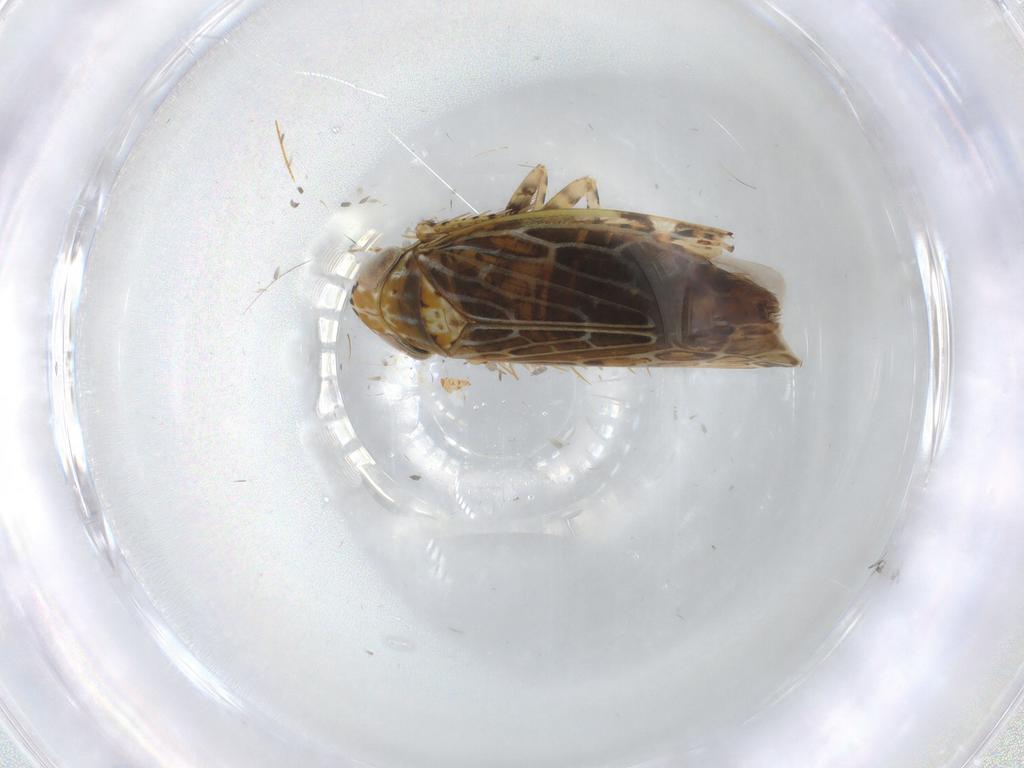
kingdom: Animalia
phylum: Arthropoda
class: Insecta
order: Hemiptera
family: Cicadellidae
